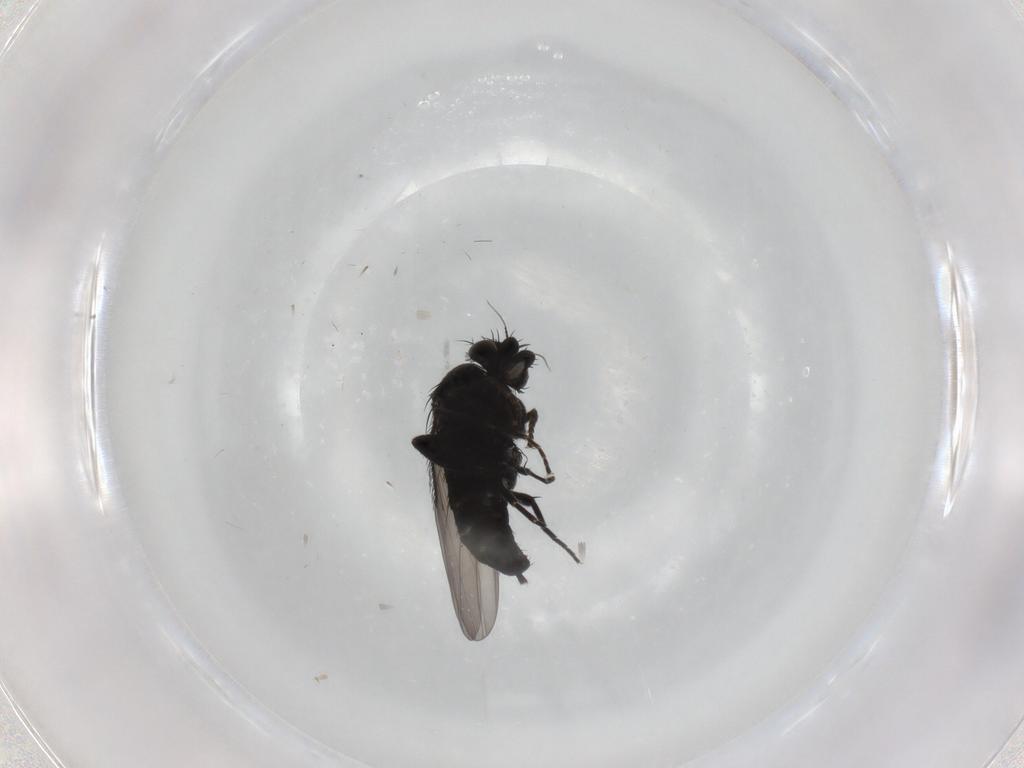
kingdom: Animalia
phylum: Arthropoda
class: Insecta
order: Diptera
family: Phoridae
